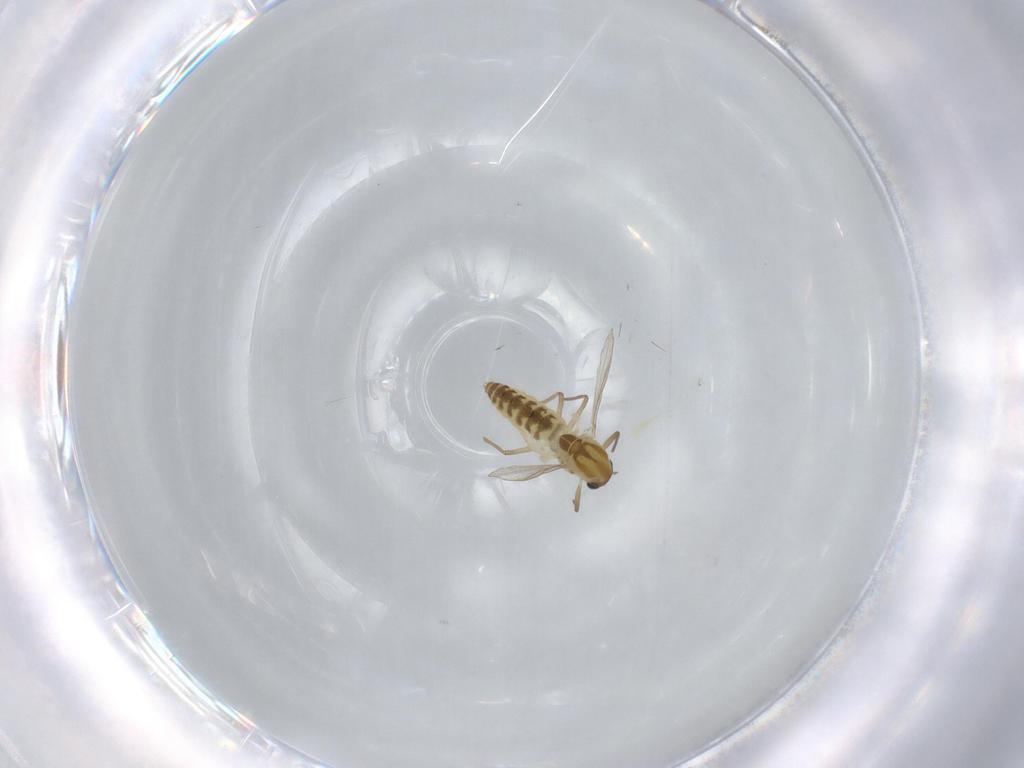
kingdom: Animalia
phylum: Arthropoda
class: Insecta
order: Diptera
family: Chironomidae
